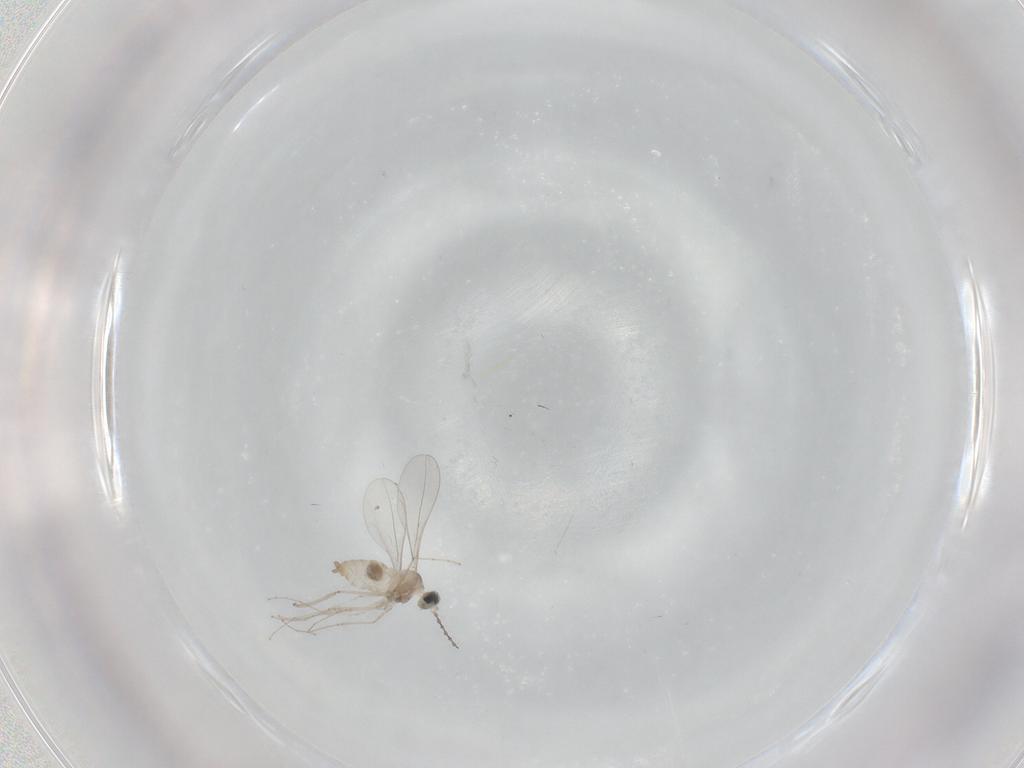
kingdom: Animalia
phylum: Arthropoda
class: Insecta
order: Diptera
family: Cecidomyiidae
